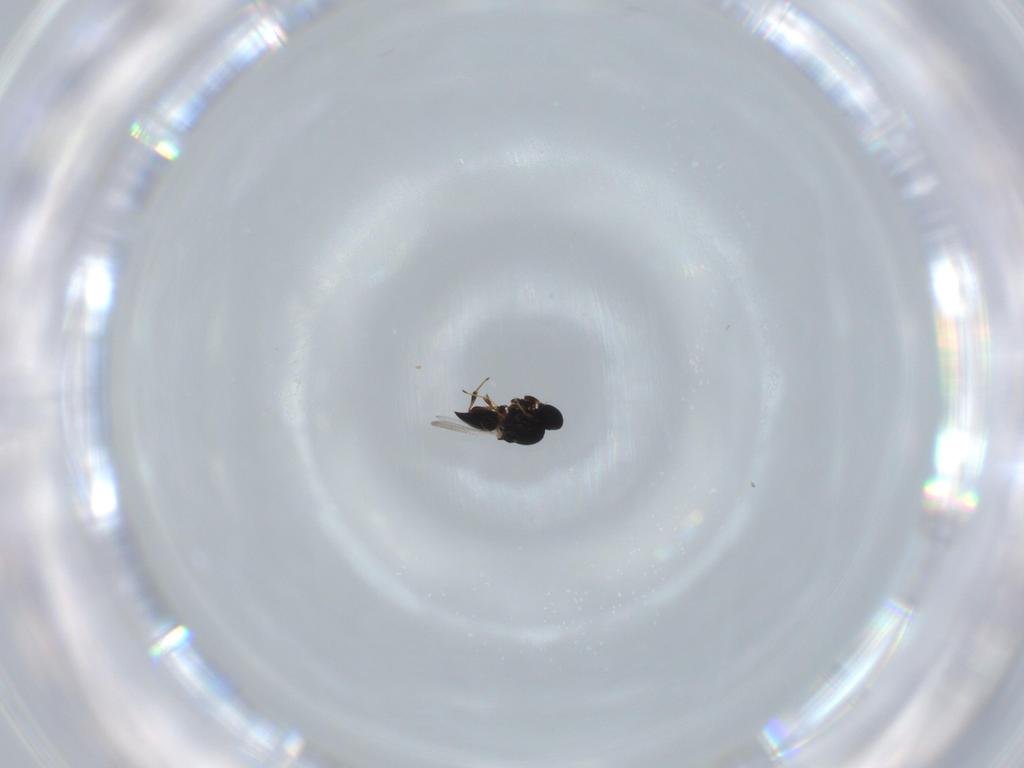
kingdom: Animalia
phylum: Arthropoda
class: Insecta
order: Hymenoptera
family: Platygastridae
